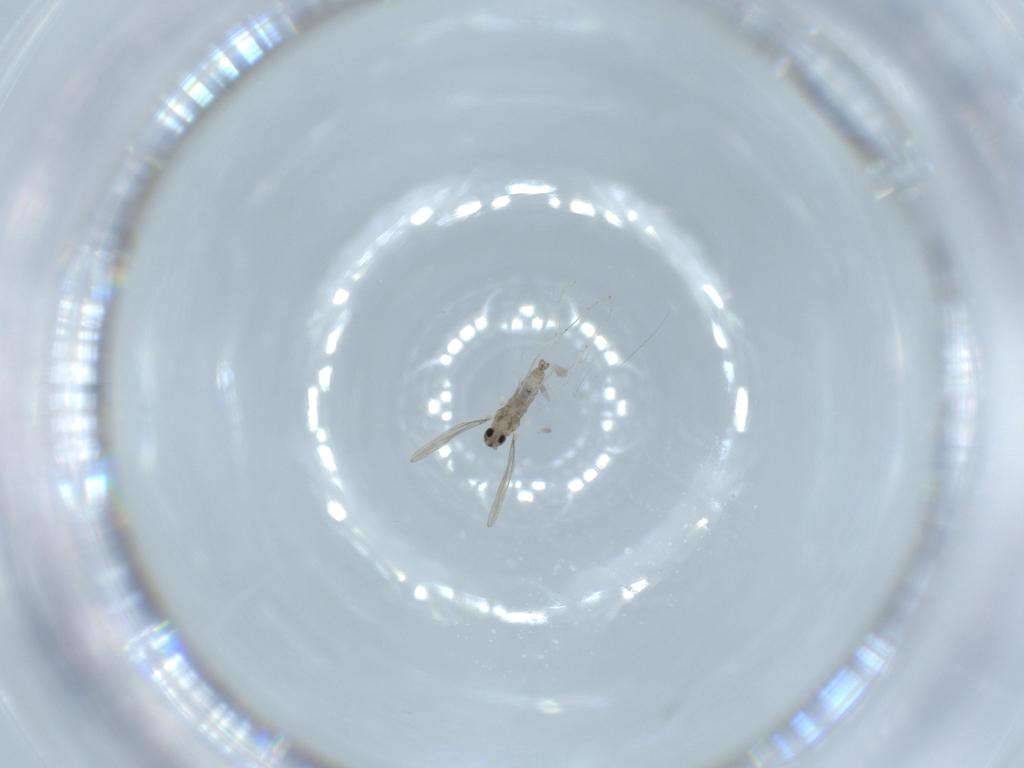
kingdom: Animalia
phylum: Arthropoda
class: Insecta
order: Diptera
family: Cecidomyiidae
